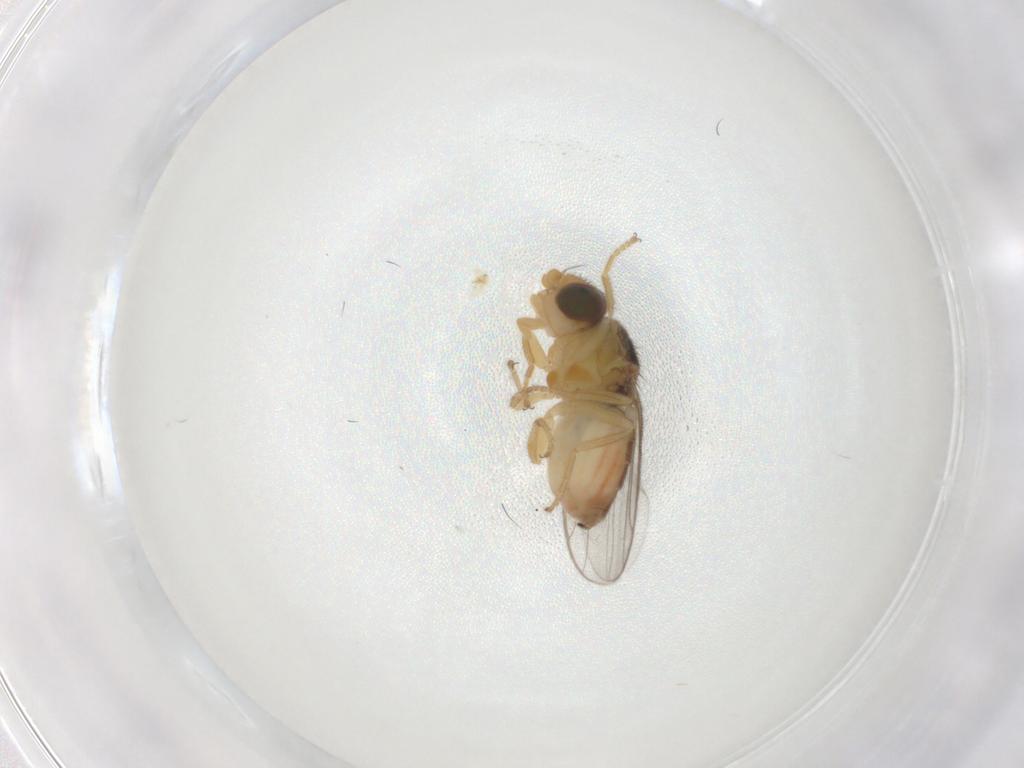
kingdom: Animalia
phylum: Arthropoda
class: Insecta
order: Diptera
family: Chloropidae
